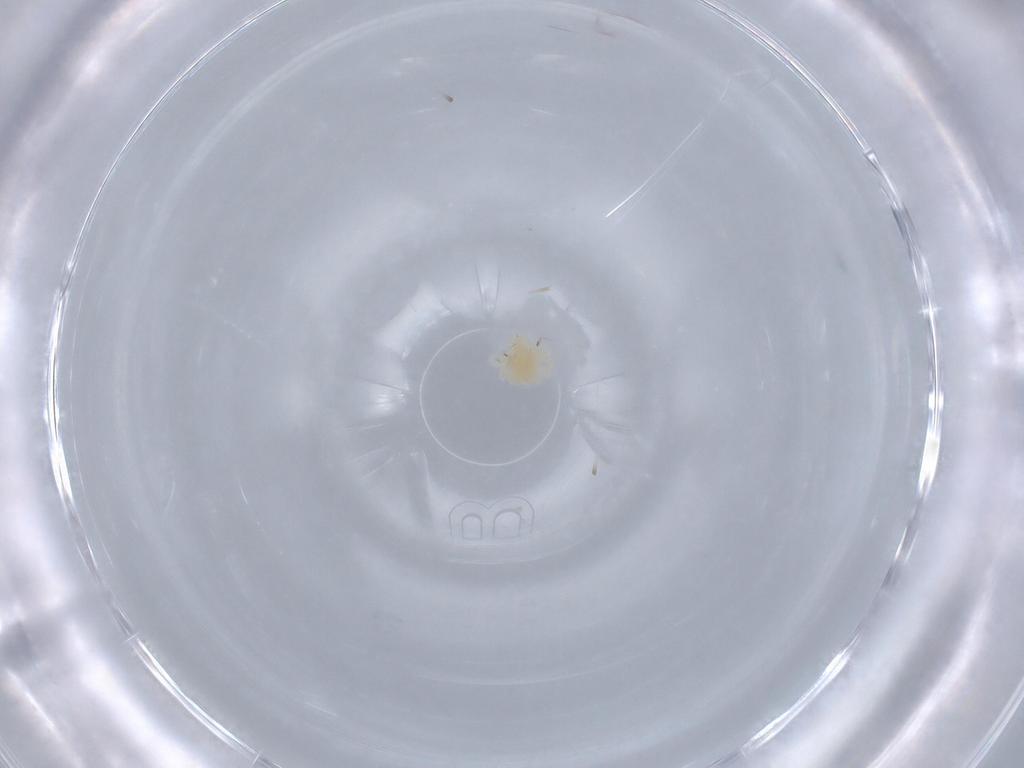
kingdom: Animalia
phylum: Arthropoda
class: Arachnida
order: Trombidiformes
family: Anystidae
